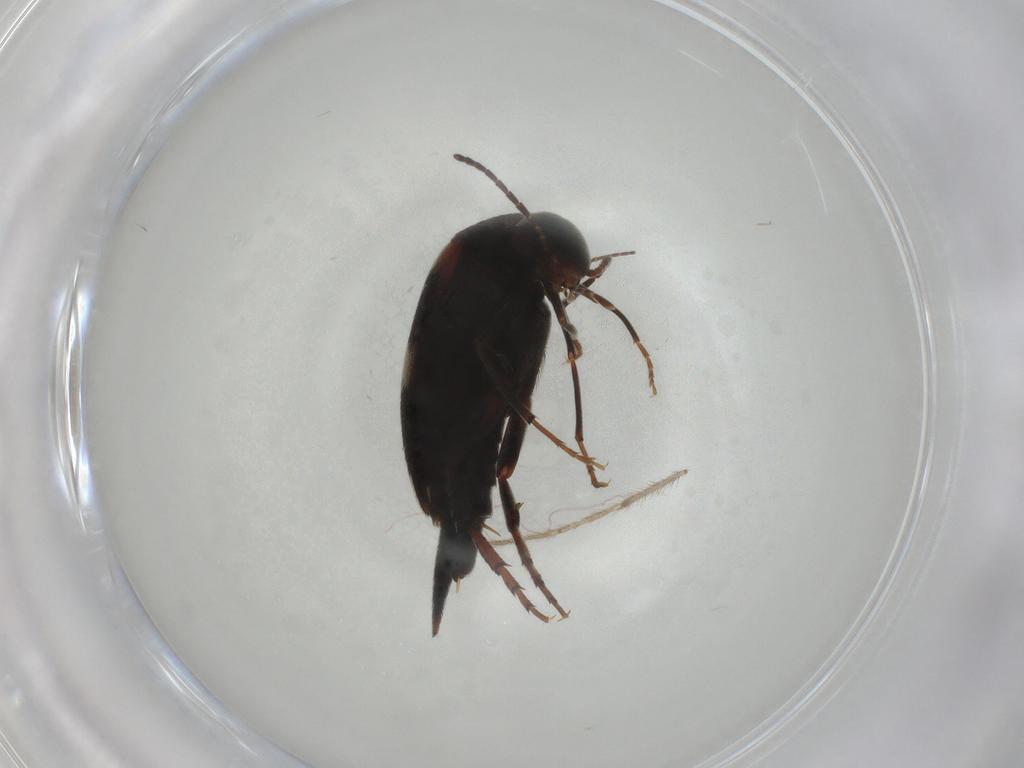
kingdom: Animalia
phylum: Arthropoda
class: Insecta
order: Coleoptera
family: Mordellidae
